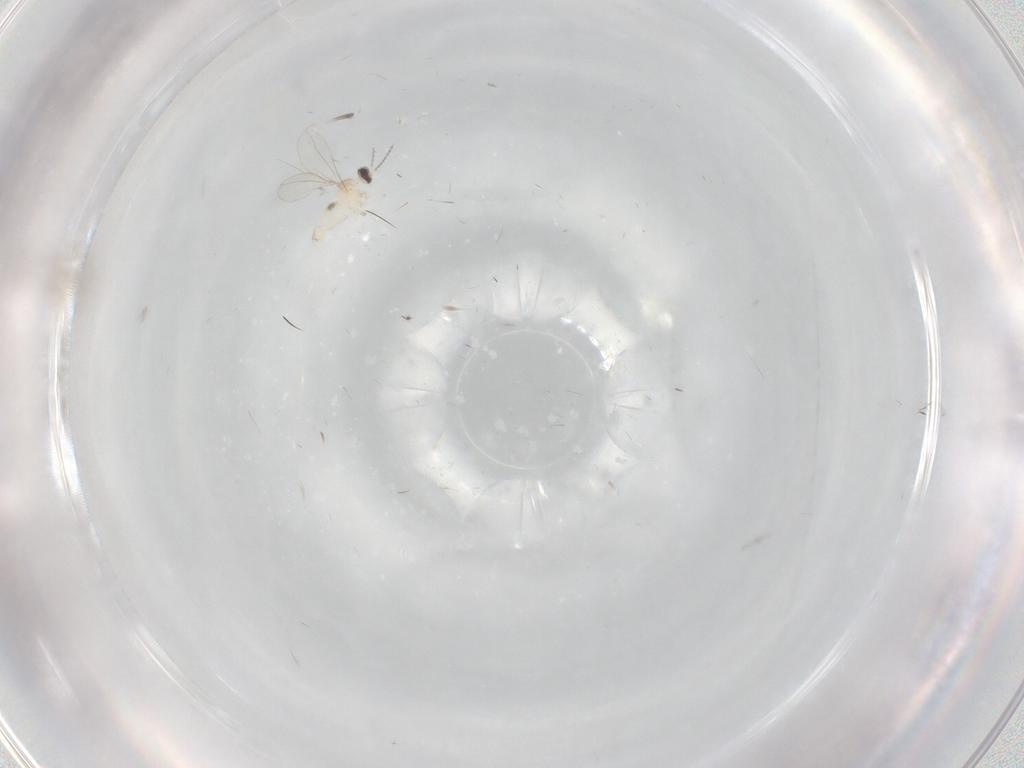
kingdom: Animalia
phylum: Arthropoda
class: Insecta
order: Diptera
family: Cecidomyiidae
